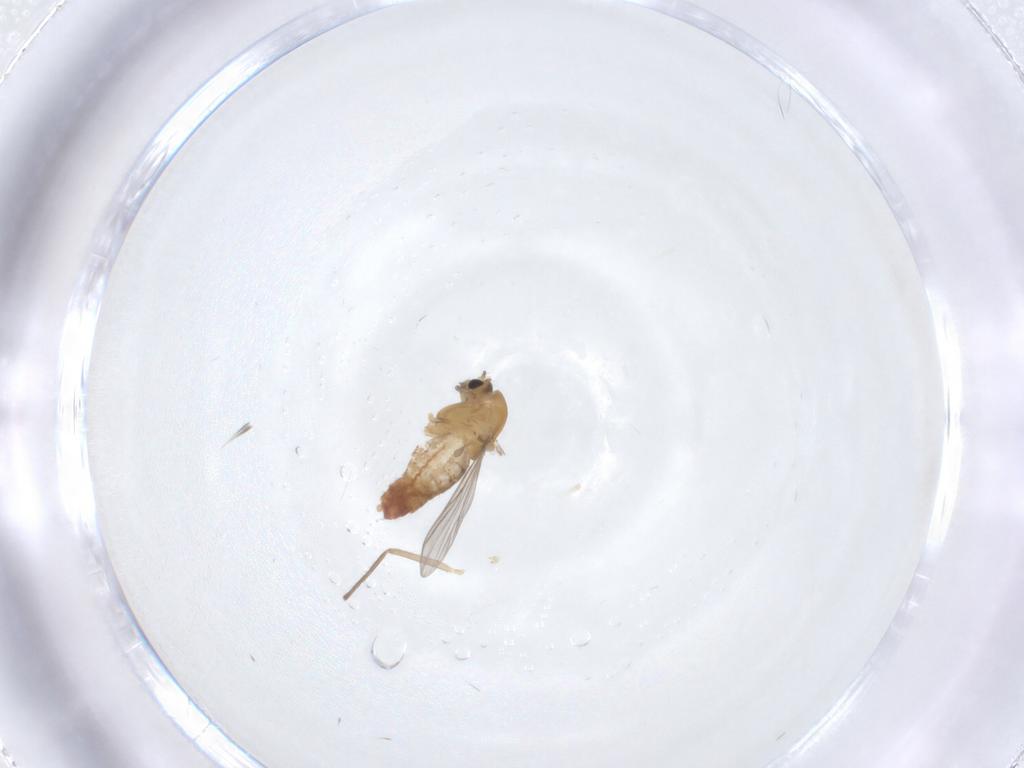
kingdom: Animalia
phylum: Arthropoda
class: Insecta
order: Diptera
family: Chironomidae
